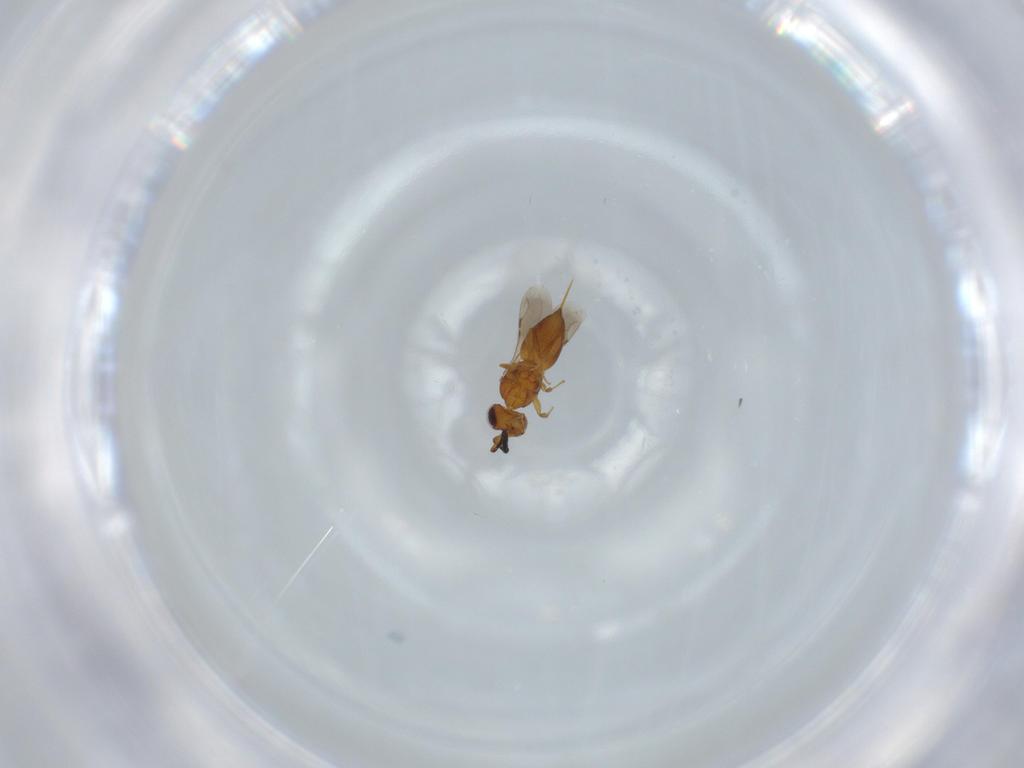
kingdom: Animalia
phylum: Arthropoda
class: Insecta
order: Hymenoptera
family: Ceraphronidae
